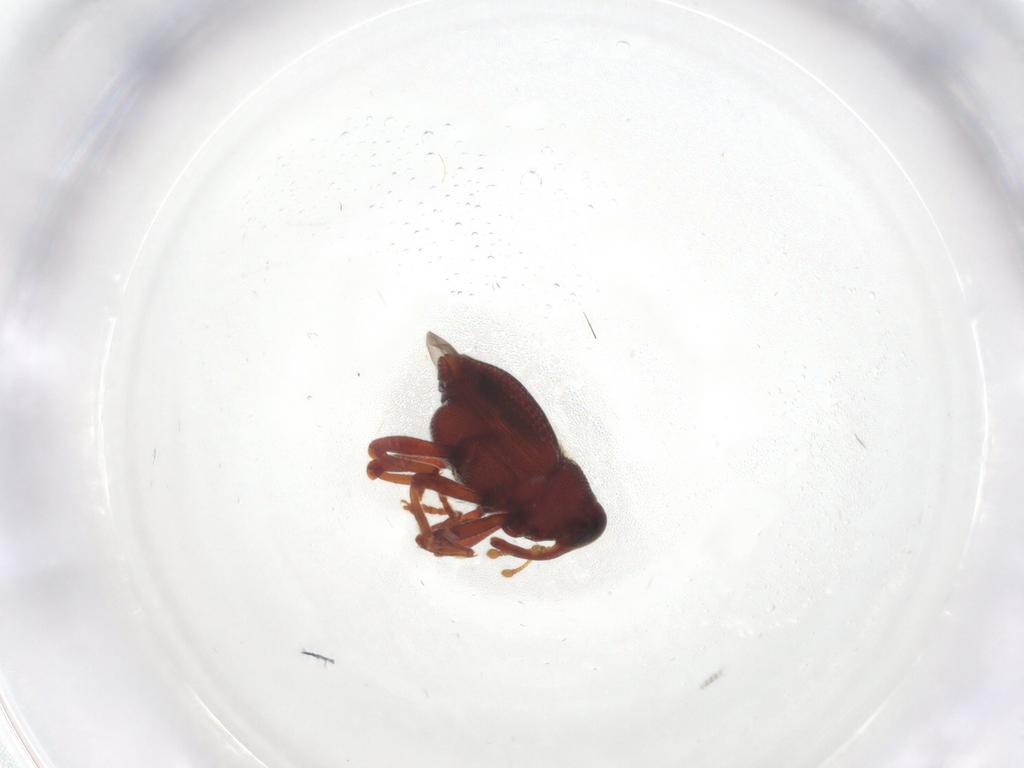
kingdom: Animalia
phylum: Arthropoda
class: Insecta
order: Coleoptera
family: Curculionidae
